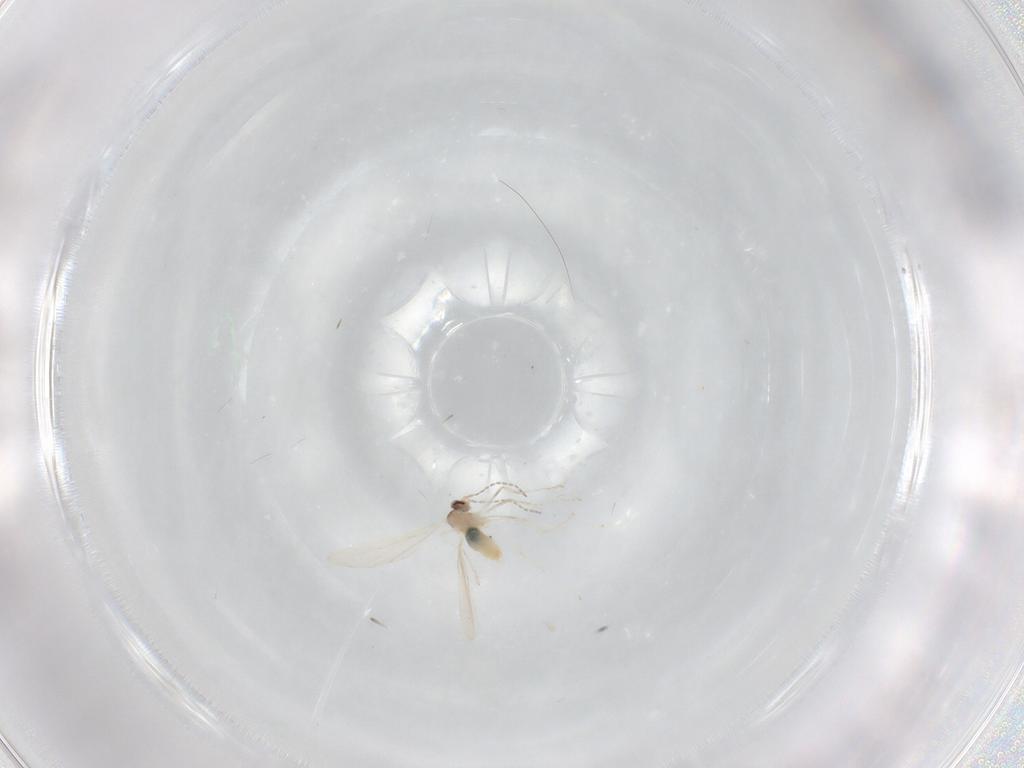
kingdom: Animalia
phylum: Arthropoda
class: Insecta
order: Diptera
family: Cecidomyiidae
